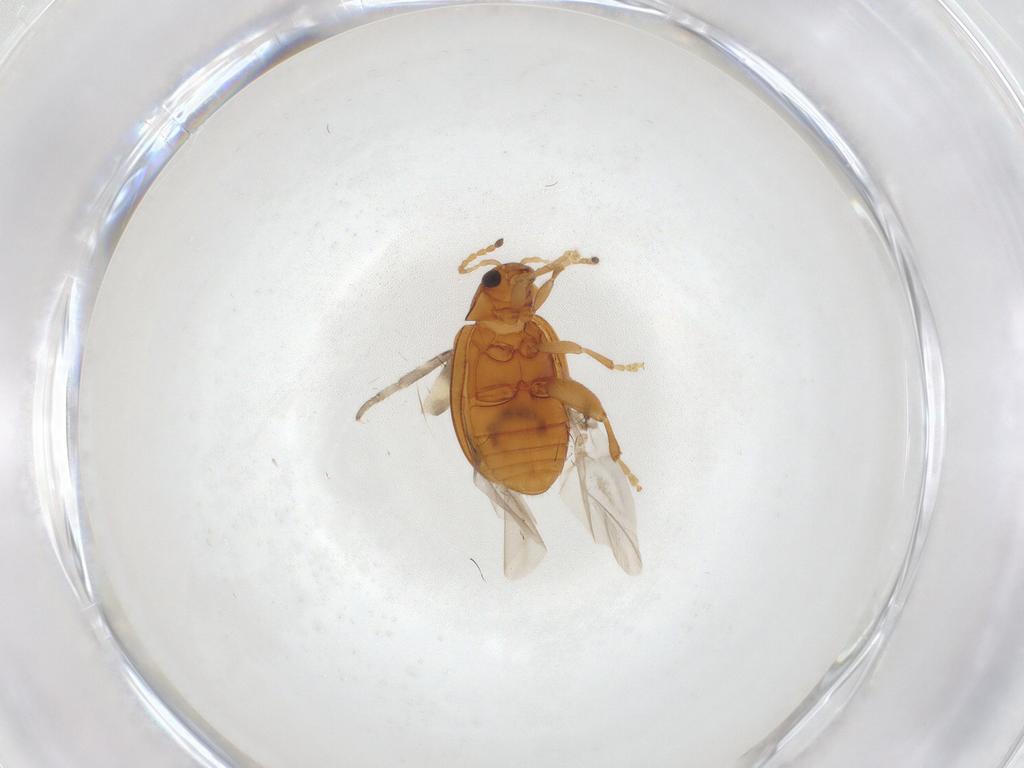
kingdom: Animalia
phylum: Arthropoda
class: Insecta
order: Coleoptera
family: Chrysomelidae
